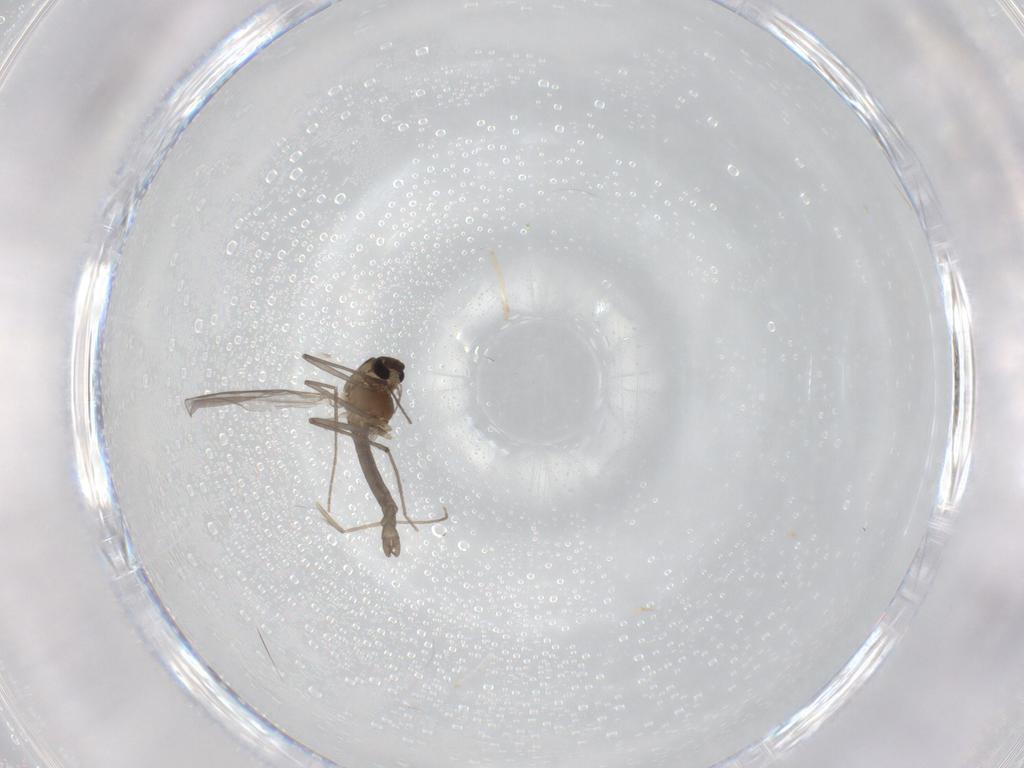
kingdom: Animalia
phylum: Arthropoda
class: Insecta
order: Diptera
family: Chironomidae
